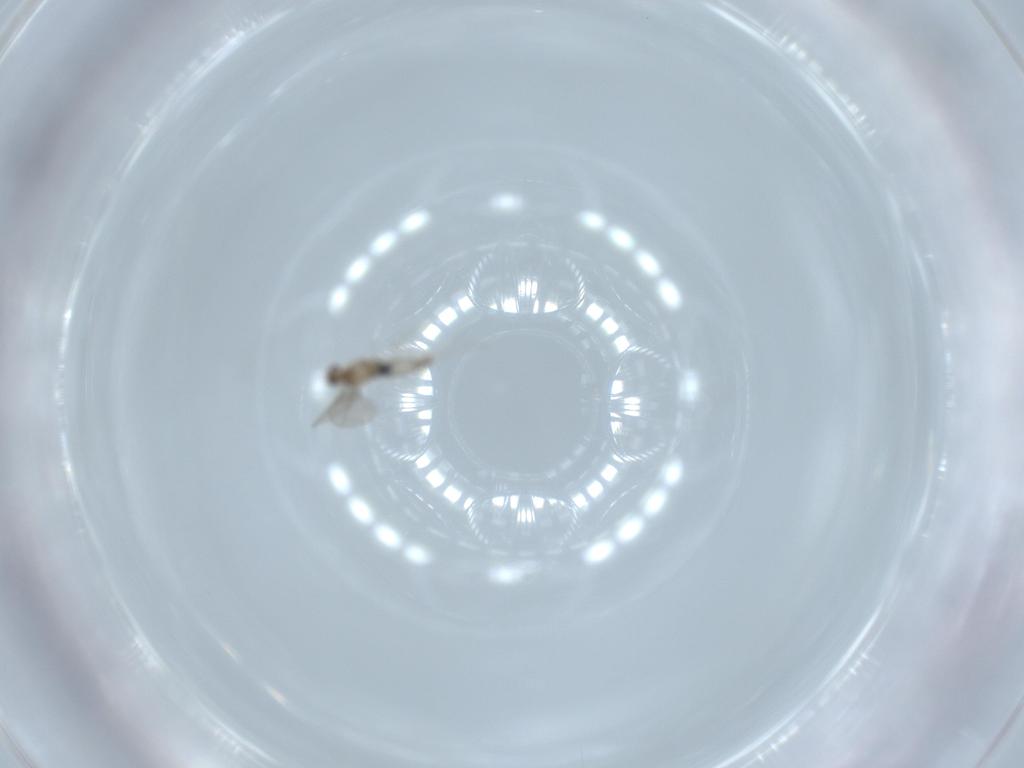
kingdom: Animalia
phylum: Arthropoda
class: Insecta
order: Diptera
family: Cecidomyiidae
